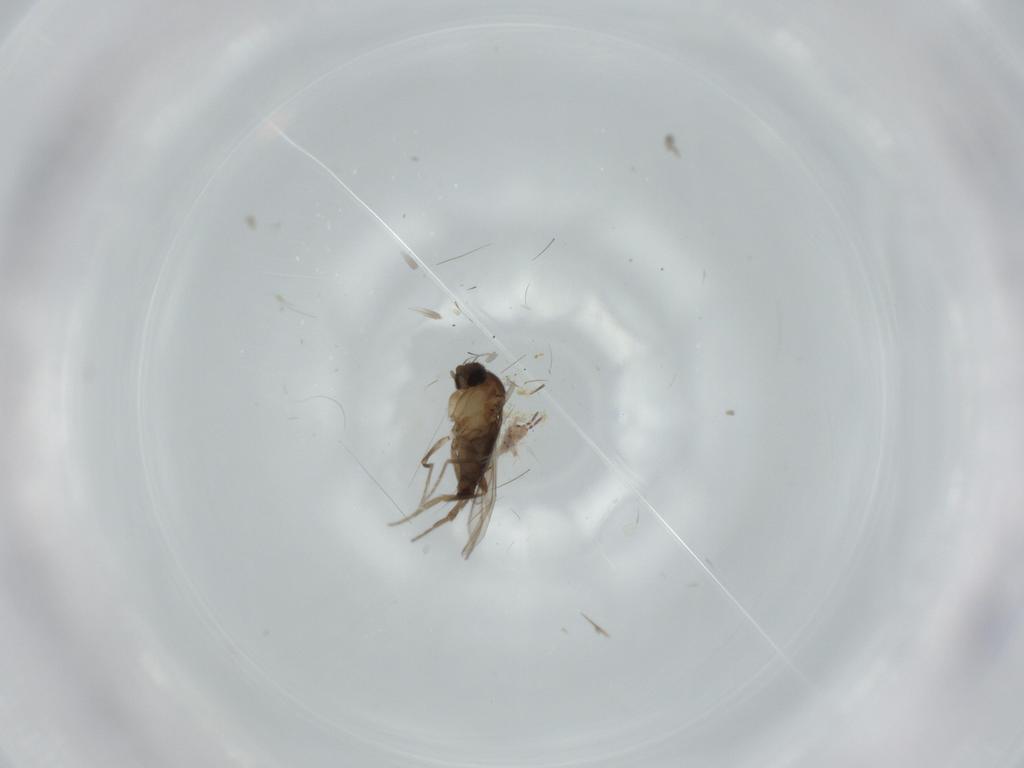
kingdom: Animalia
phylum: Arthropoda
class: Insecta
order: Diptera
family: Phoridae
